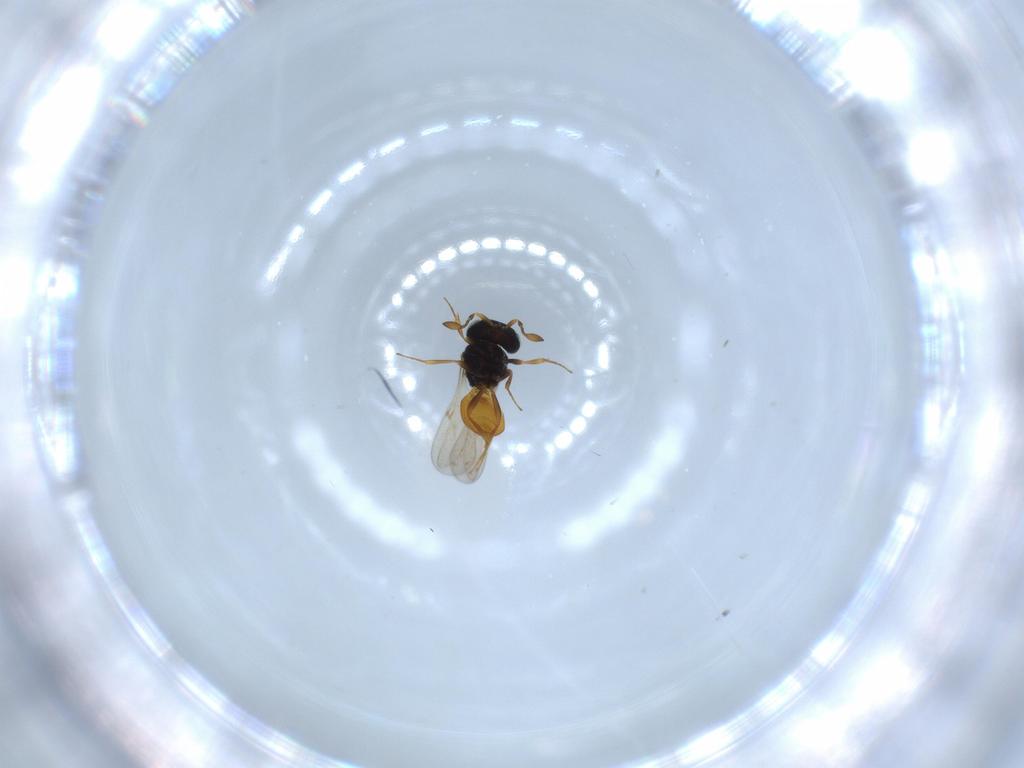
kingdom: Animalia
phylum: Arthropoda
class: Insecta
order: Hymenoptera
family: Scelionidae
